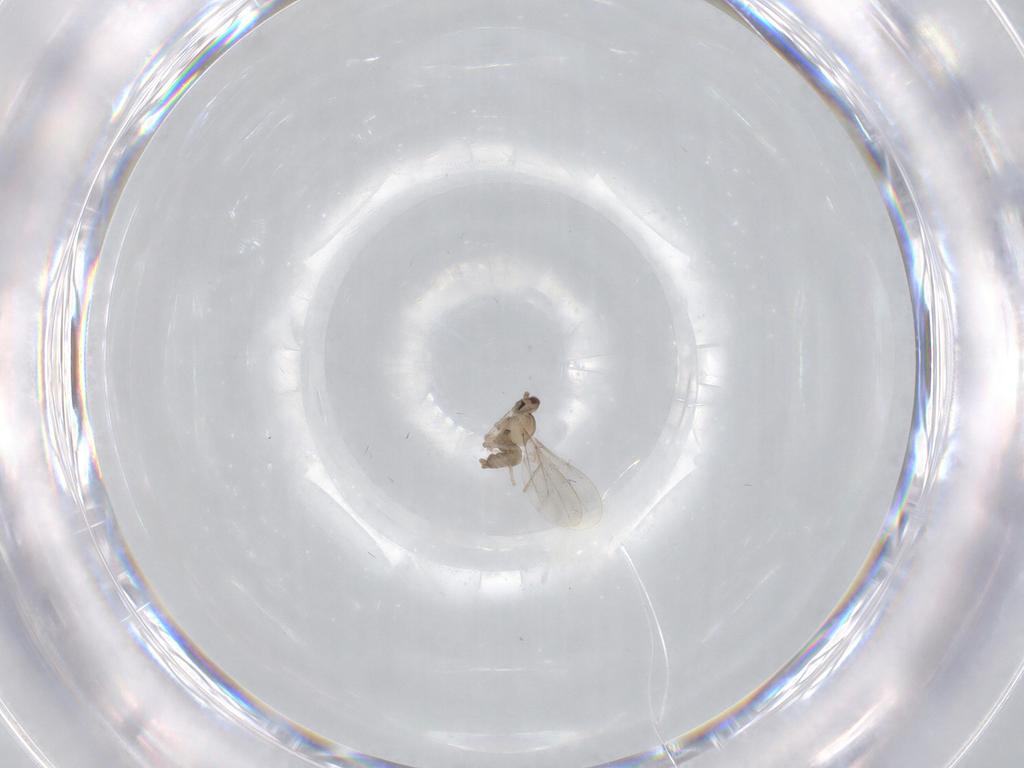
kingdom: Animalia
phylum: Arthropoda
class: Insecta
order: Diptera
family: Cecidomyiidae
